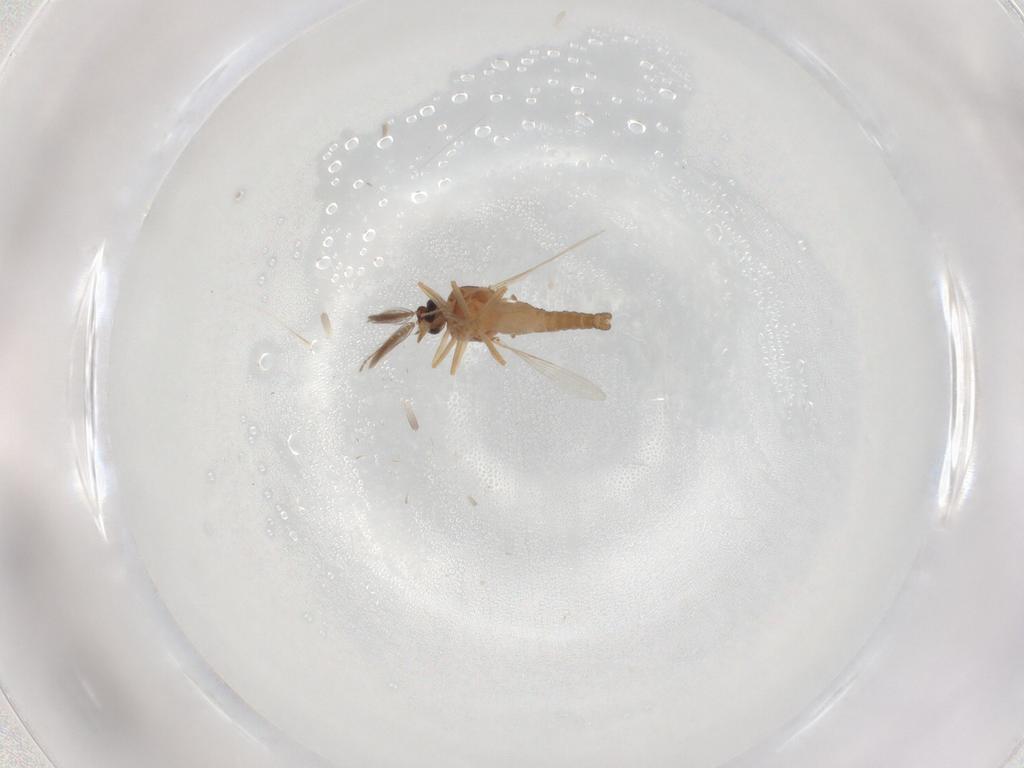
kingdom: Animalia
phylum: Arthropoda
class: Insecta
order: Diptera
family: Ceratopogonidae
